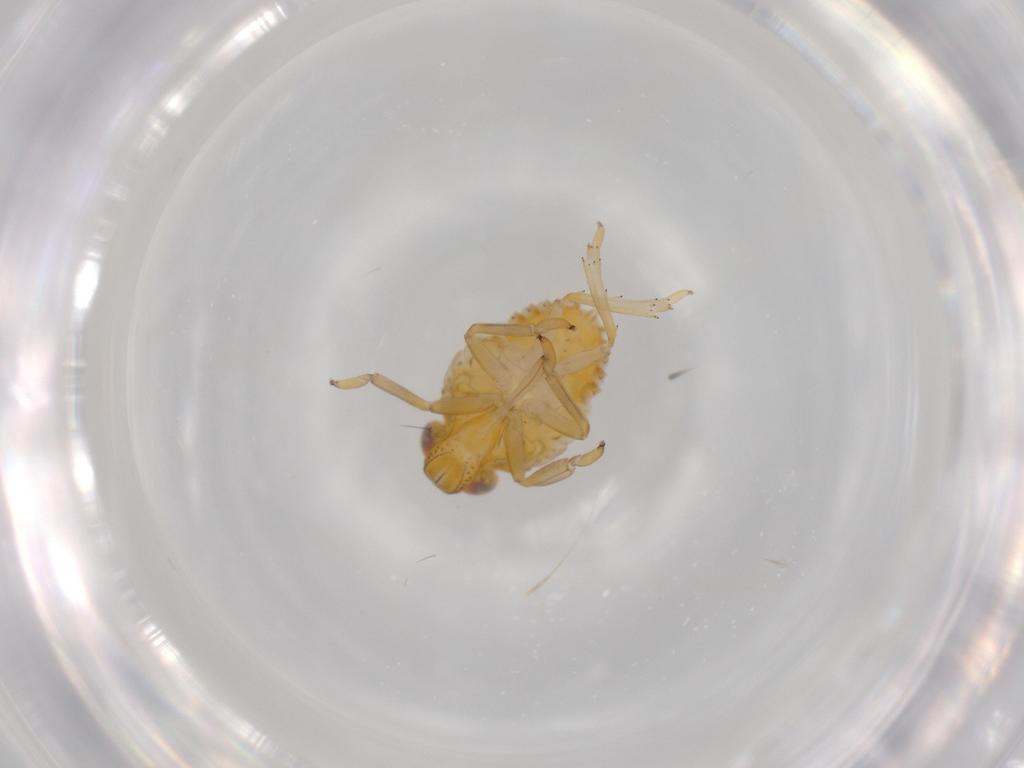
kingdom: Animalia
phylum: Arthropoda
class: Insecta
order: Hemiptera
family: Issidae
